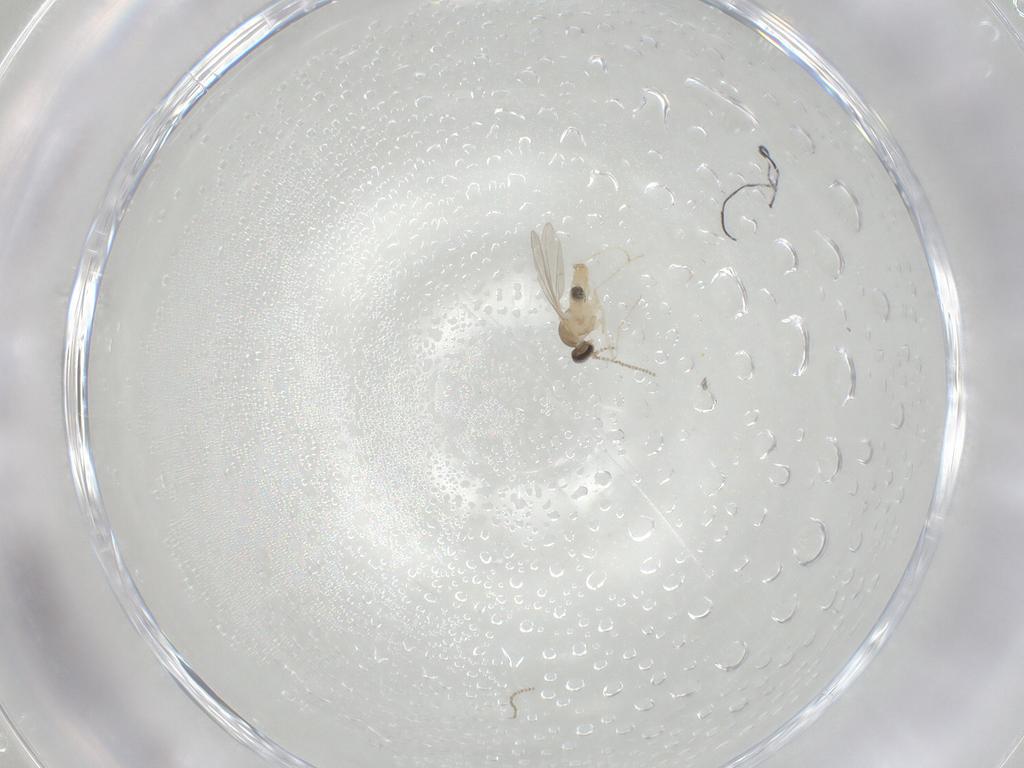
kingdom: Animalia
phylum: Arthropoda
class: Insecta
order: Diptera
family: Cecidomyiidae
